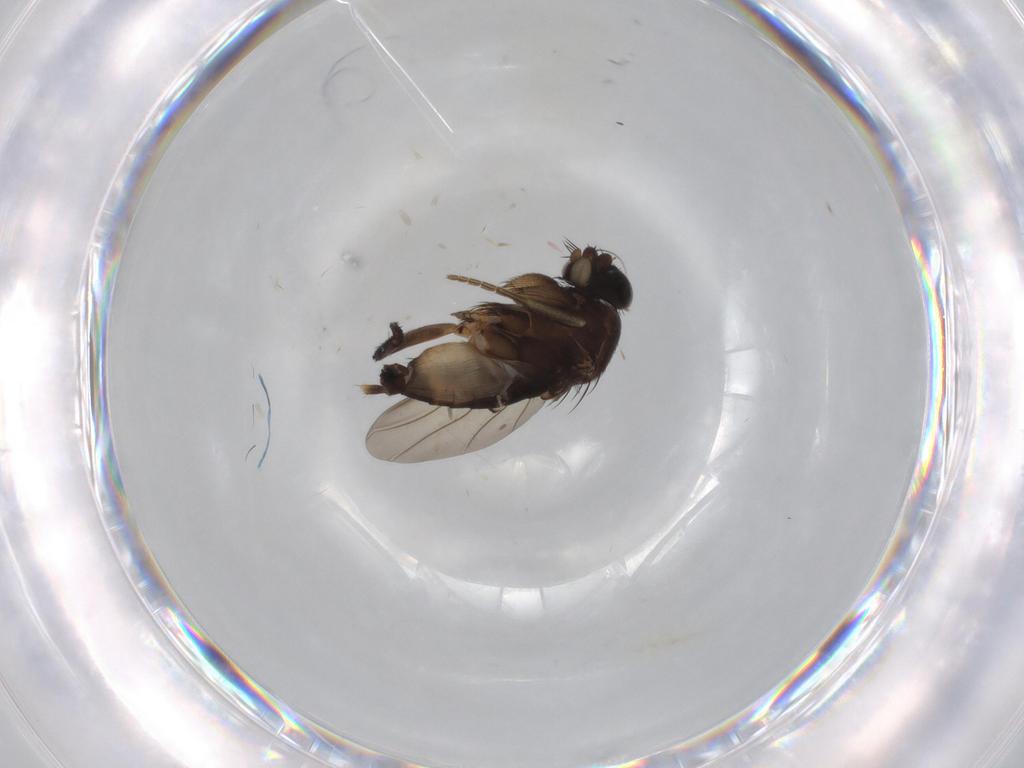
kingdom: Animalia
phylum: Arthropoda
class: Insecta
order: Diptera
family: Phoridae
